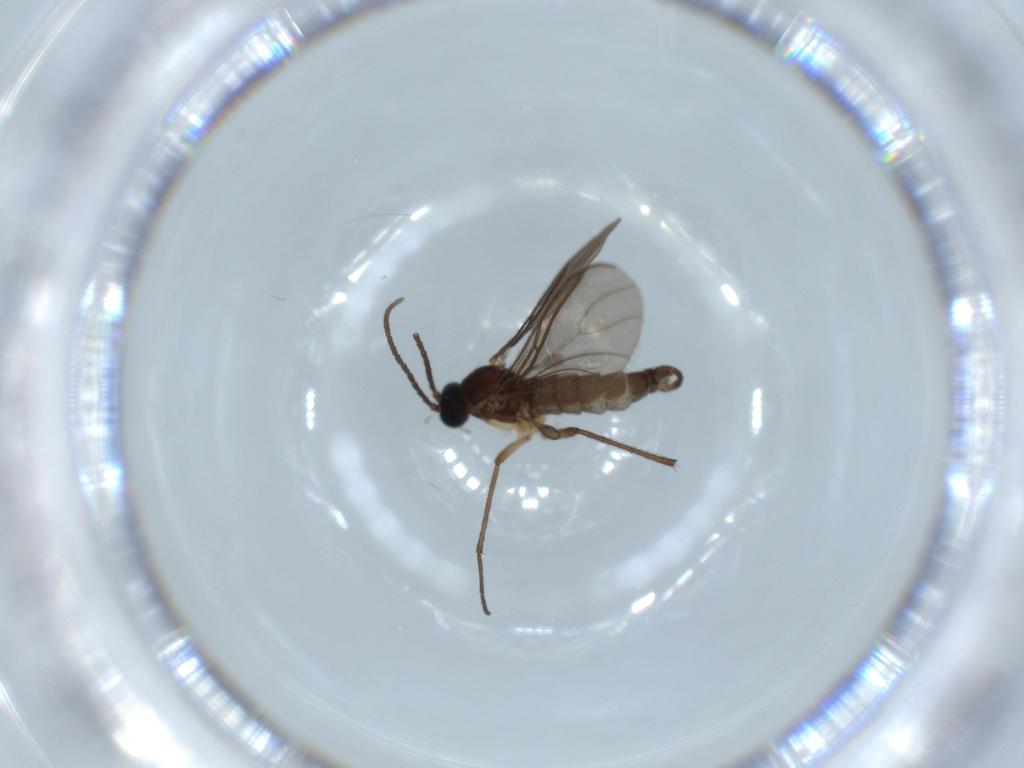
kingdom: Animalia
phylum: Arthropoda
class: Insecta
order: Diptera
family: Sciaridae
